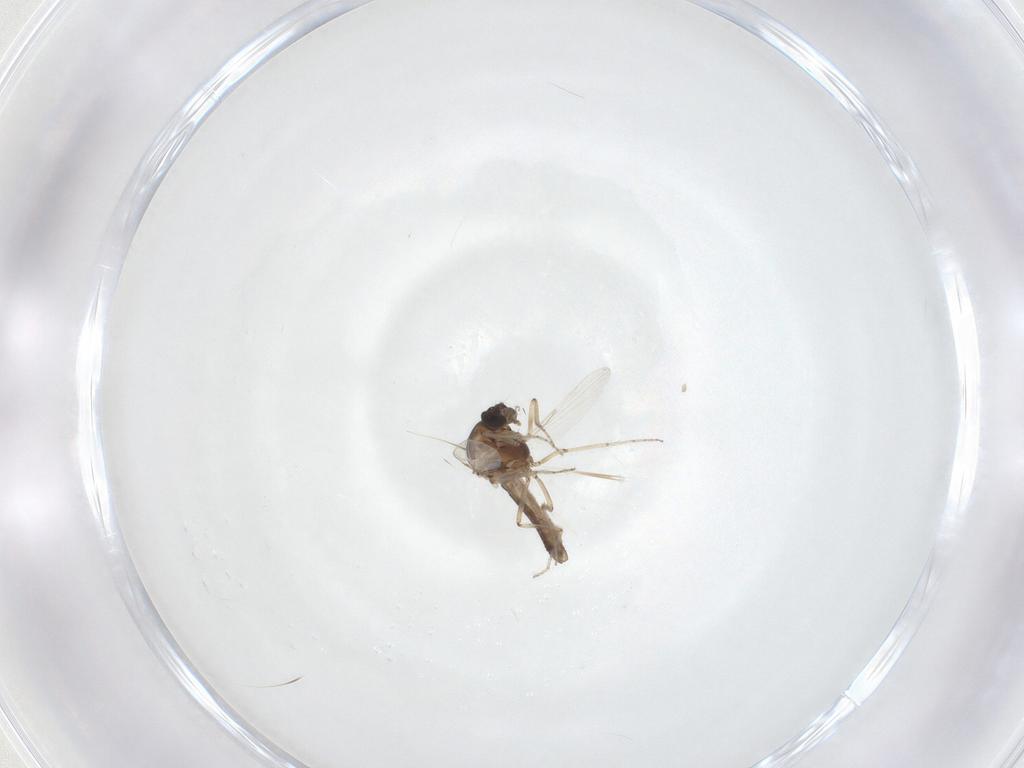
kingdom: Animalia
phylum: Arthropoda
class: Insecta
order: Diptera
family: Ceratopogonidae
